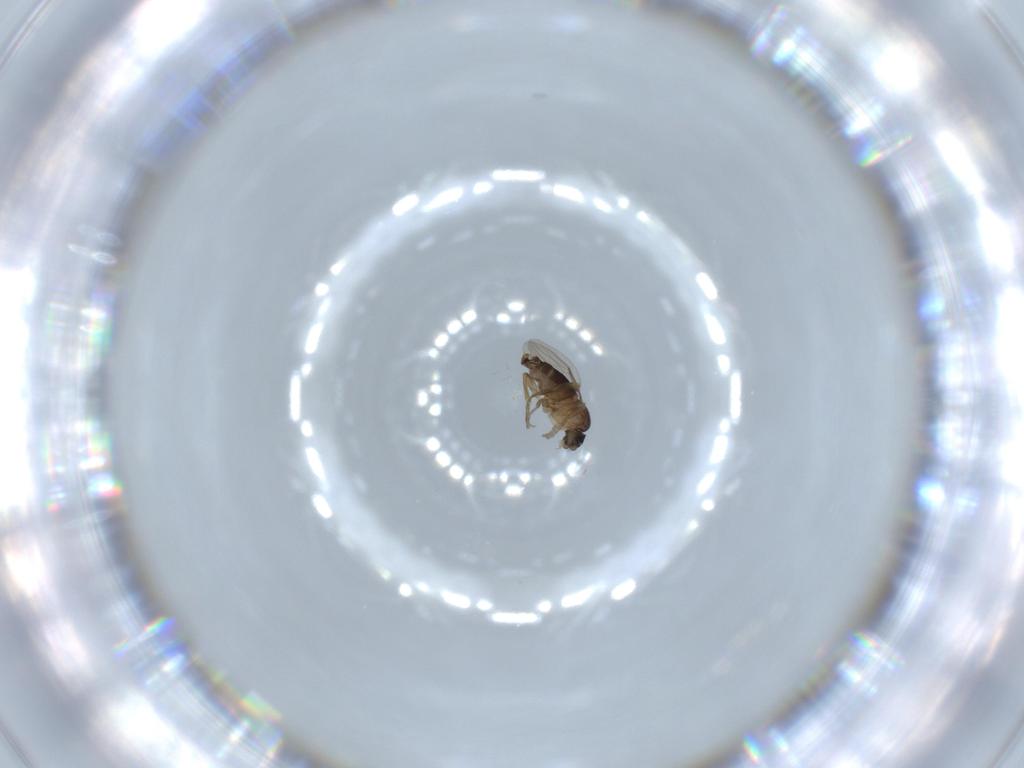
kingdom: Animalia
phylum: Arthropoda
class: Insecta
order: Diptera
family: Phoridae
